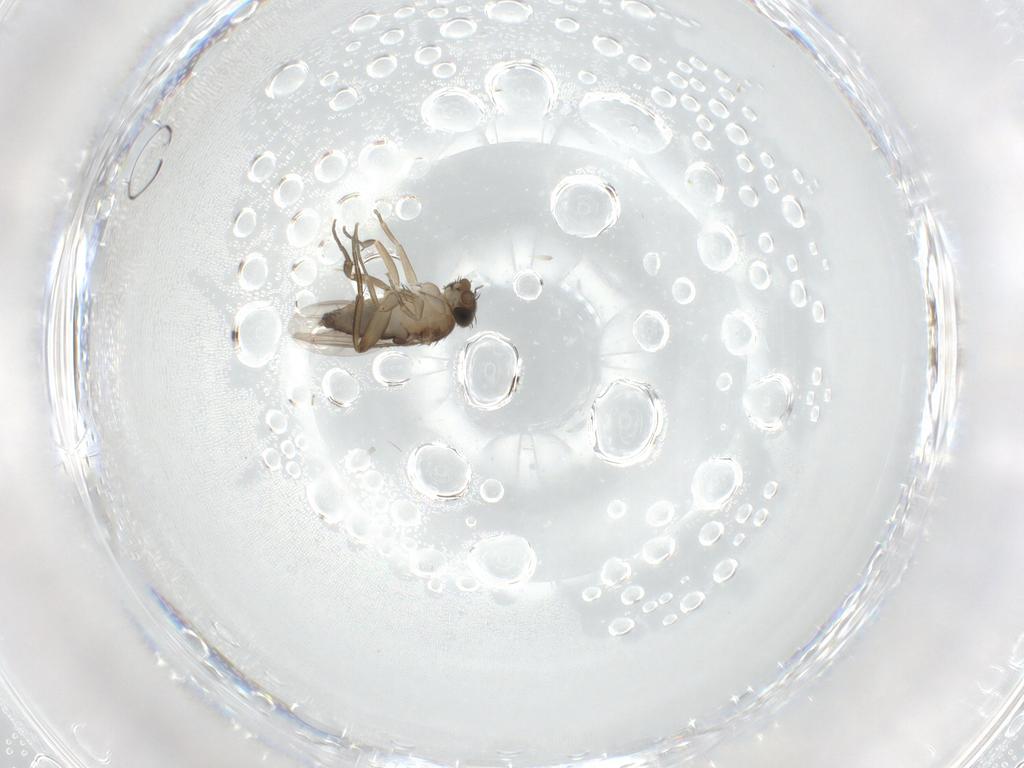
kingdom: Animalia
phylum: Arthropoda
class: Insecta
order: Diptera
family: Phoridae
